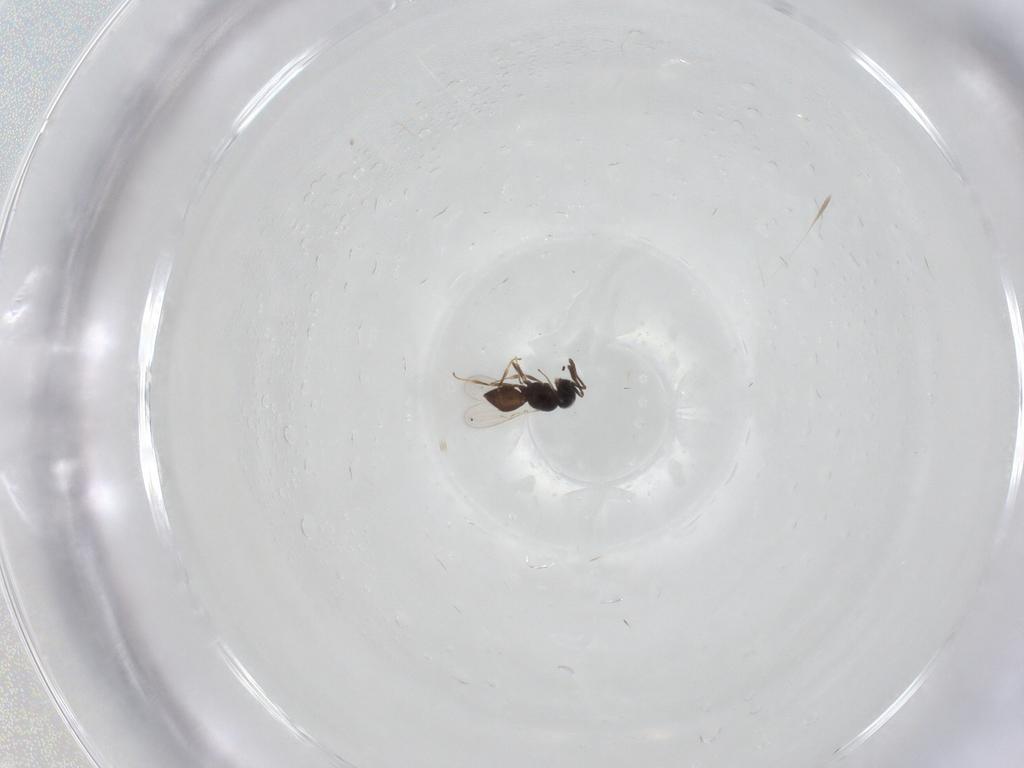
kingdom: Animalia
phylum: Arthropoda
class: Insecta
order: Hymenoptera
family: Scelionidae
